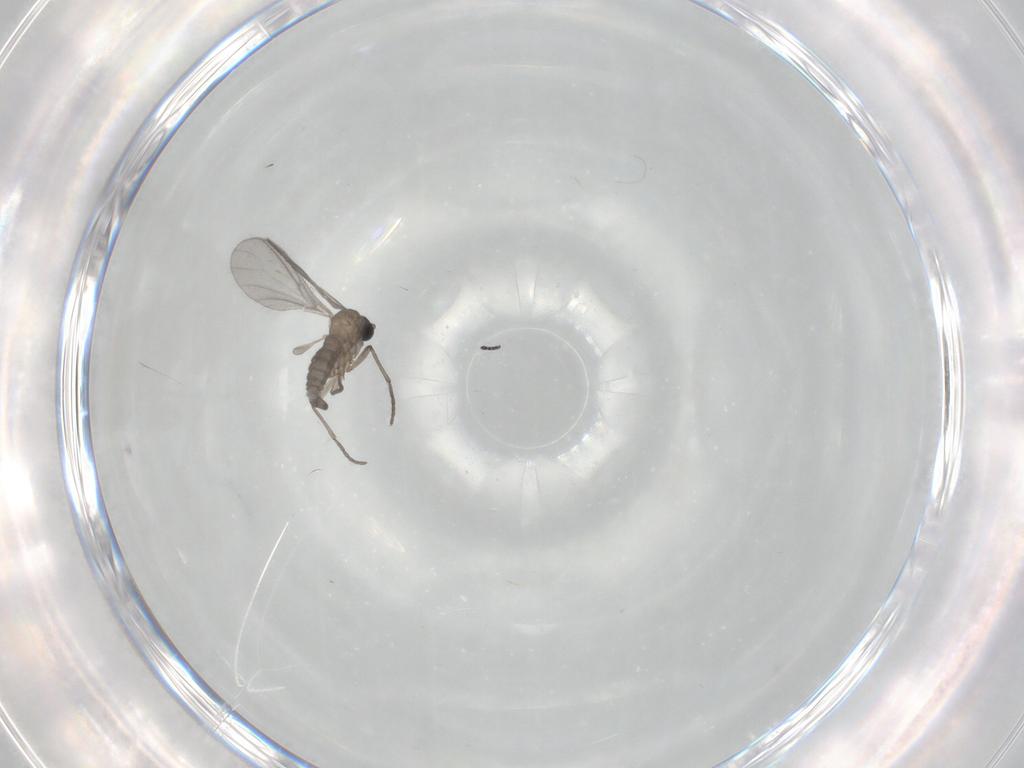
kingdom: Animalia
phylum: Arthropoda
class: Insecta
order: Diptera
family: Sciaridae
